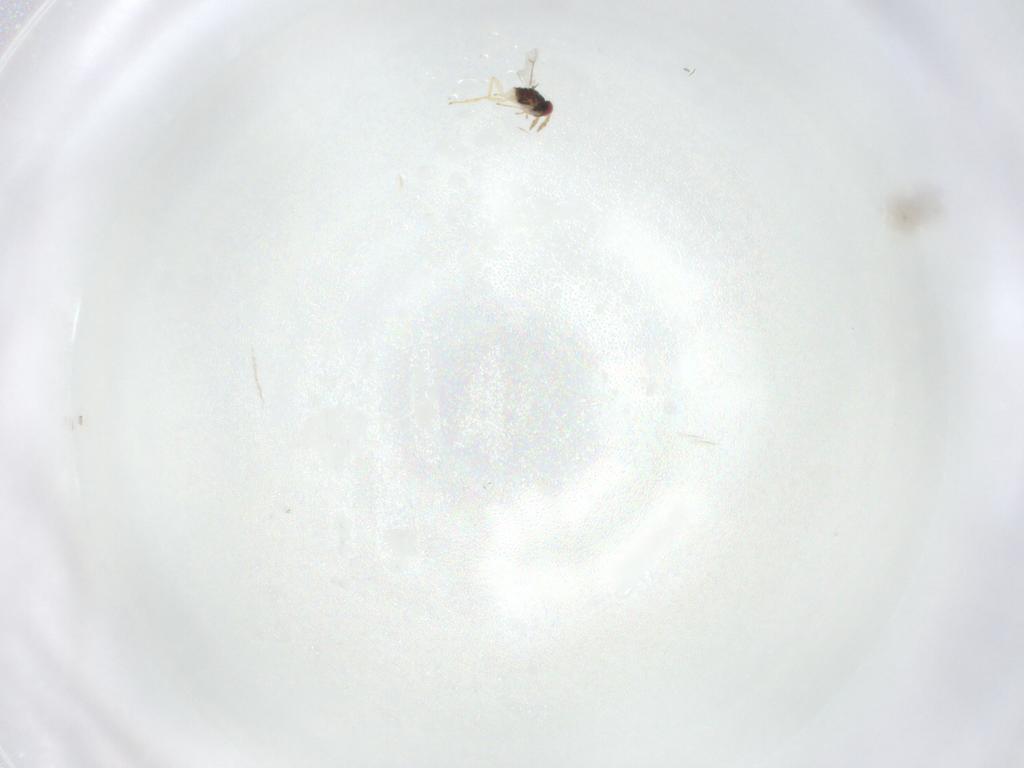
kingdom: Animalia
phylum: Arthropoda
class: Insecta
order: Hymenoptera
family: Eulophidae
